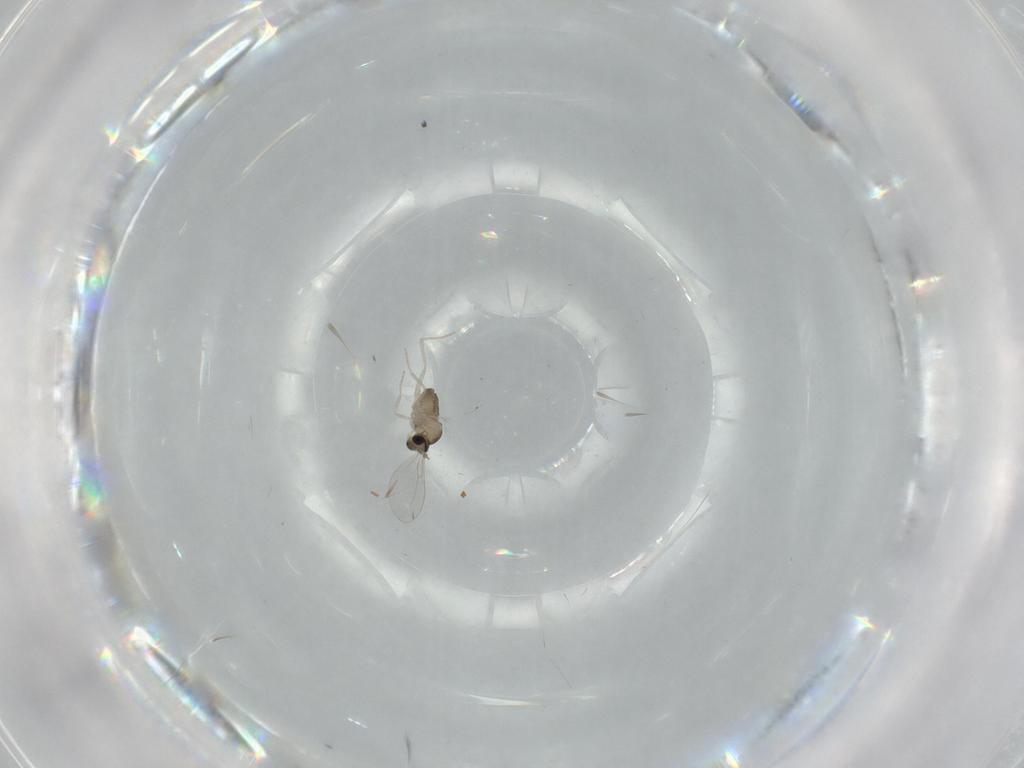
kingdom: Animalia
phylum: Arthropoda
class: Insecta
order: Diptera
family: Cecidomyiidae
